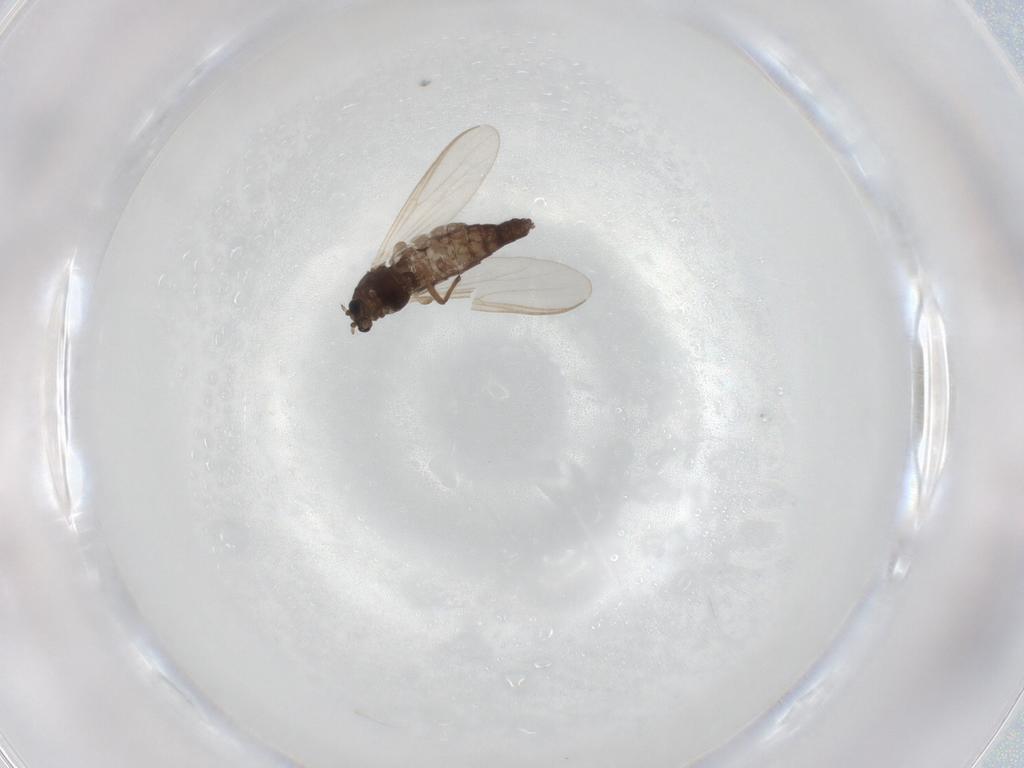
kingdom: Animalia
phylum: Arthropoda
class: Insecta
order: Diptera
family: Chironomidae
